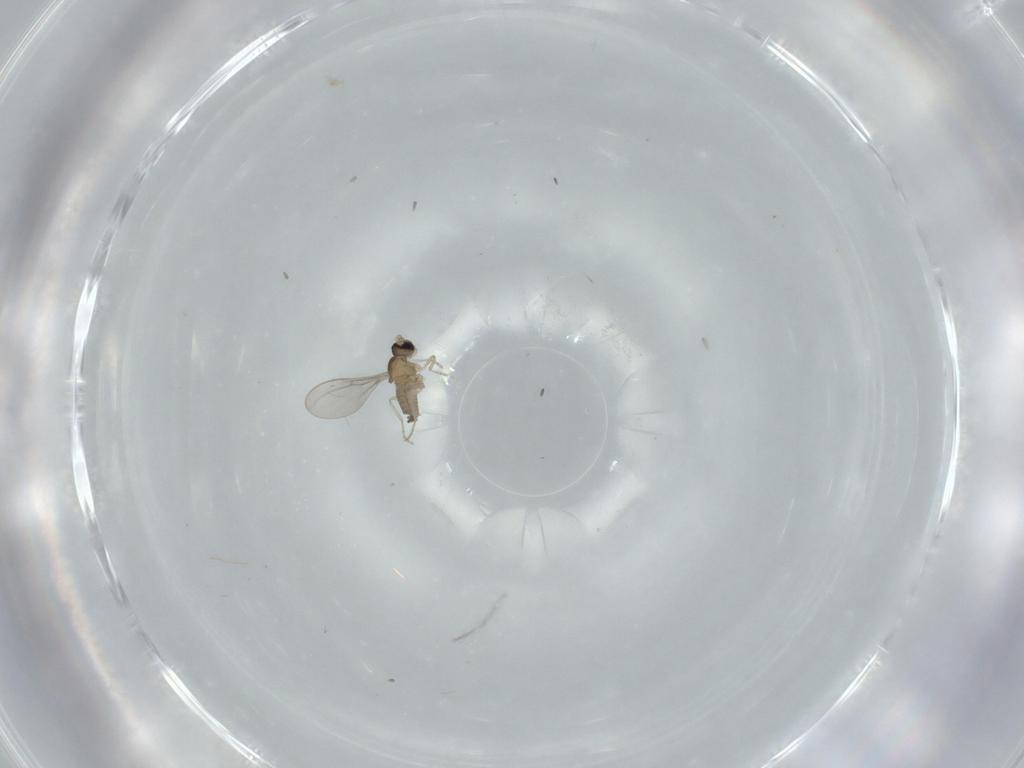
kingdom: Animalia
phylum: Arthropoda
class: Insecta
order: Diptera
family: Cecidomyiidae
